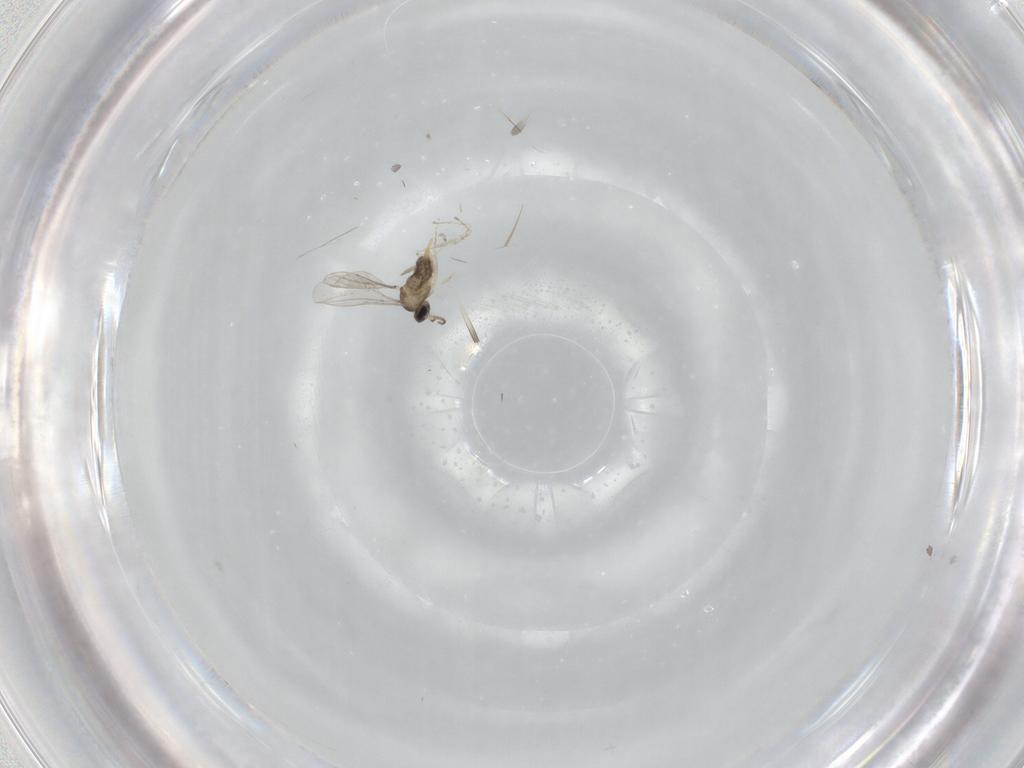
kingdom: Animalia
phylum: Arthropoda
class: Insecta
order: Diptera
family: Cecidomyiidae
